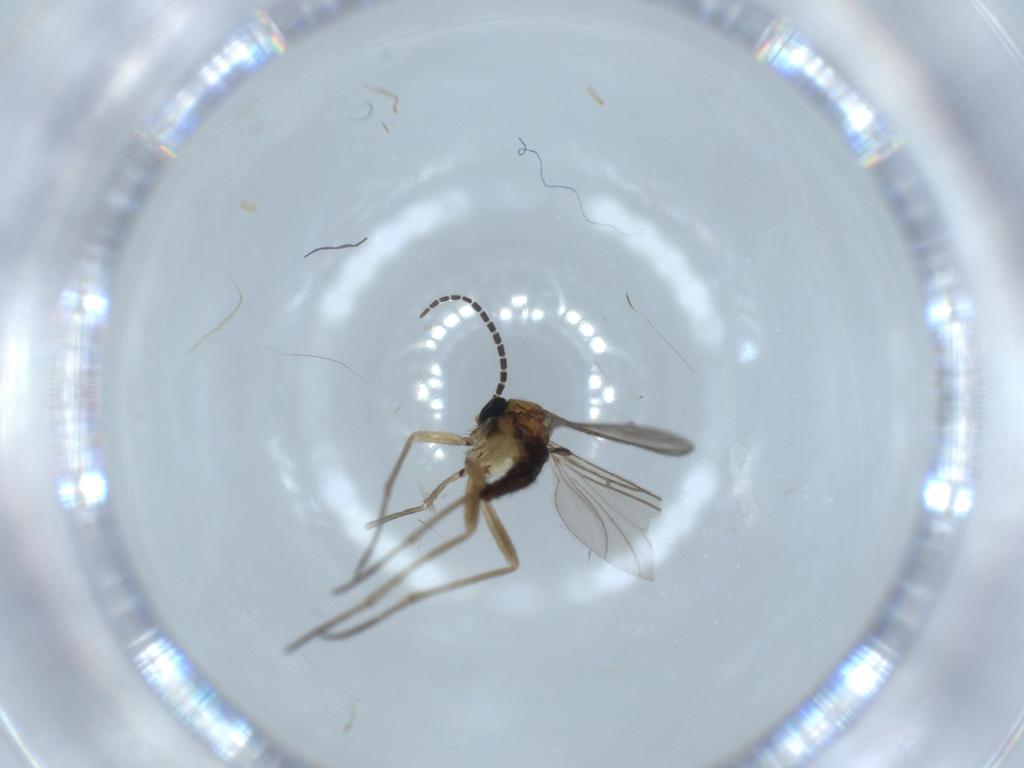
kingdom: Animalia
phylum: Arthropoda
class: Insecta
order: Diptera
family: Sciaridae
